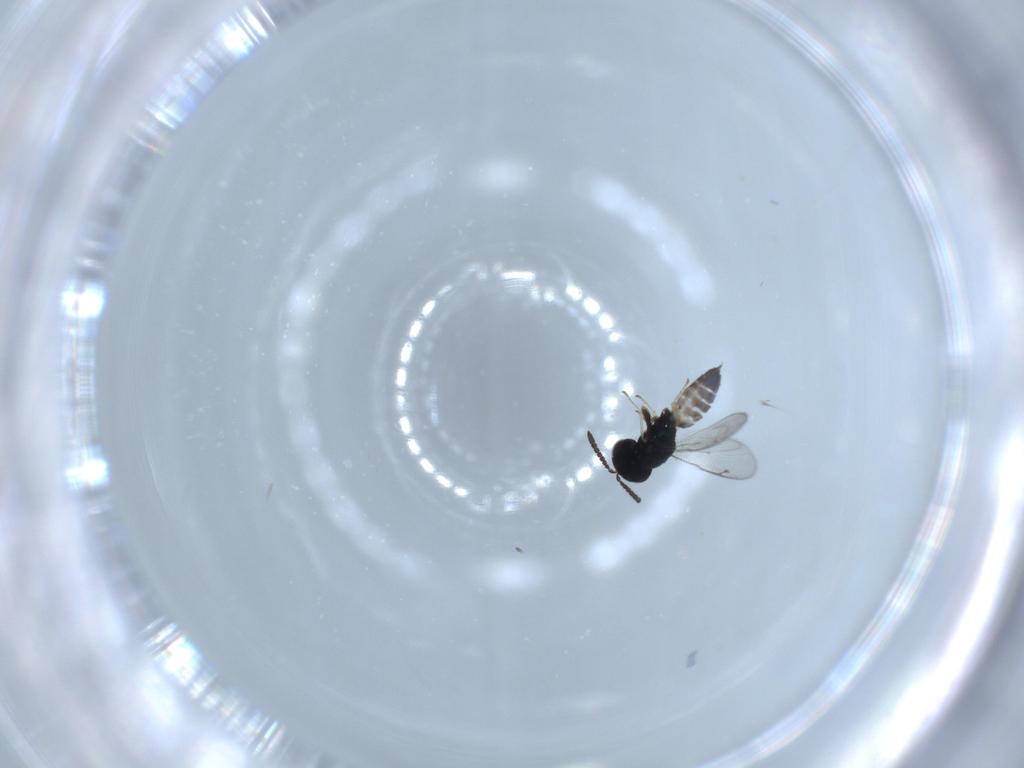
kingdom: Animalia
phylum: Arthropoda
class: Insecta
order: Hymenoptera
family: Pteromalidae
